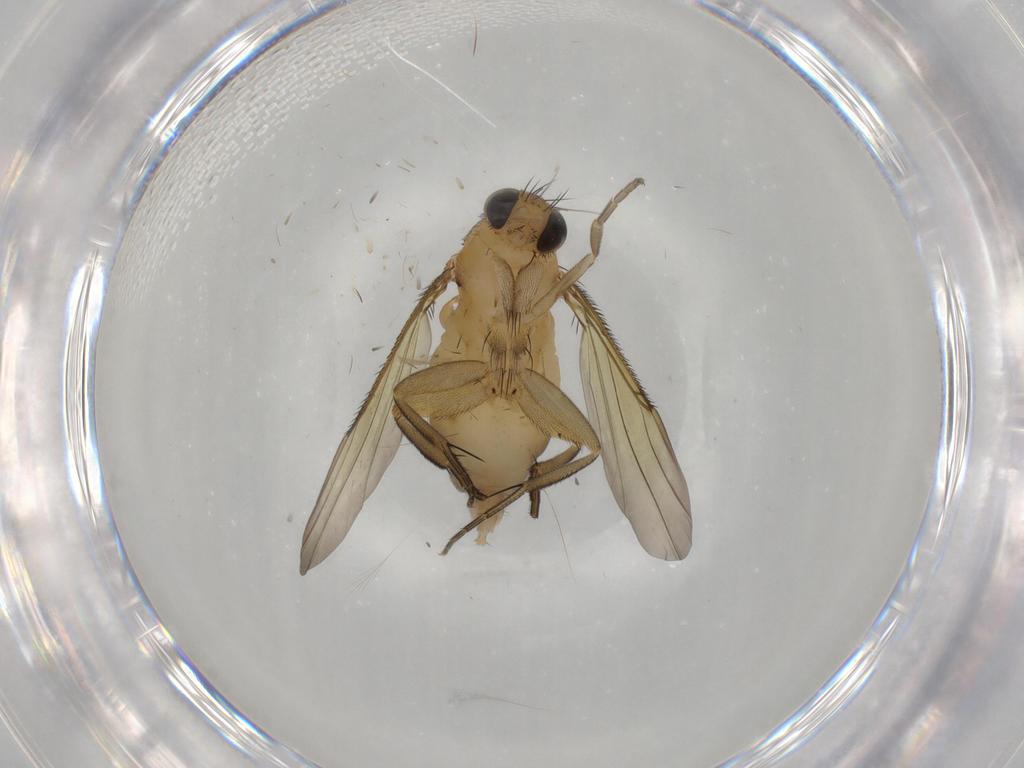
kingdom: Animalia
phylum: Arthropoda
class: Insecta
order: Diptera
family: Phoridae
